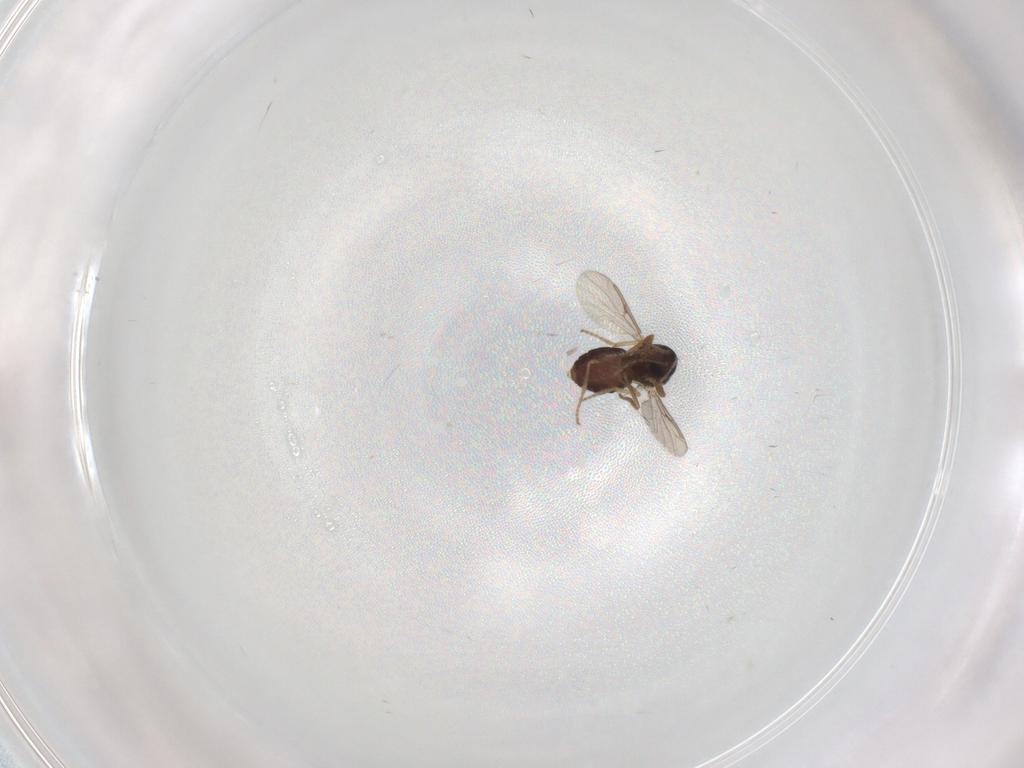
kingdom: Animalia
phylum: Arthropoda
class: Insecta
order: Diptera
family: Ceratopogonidae
